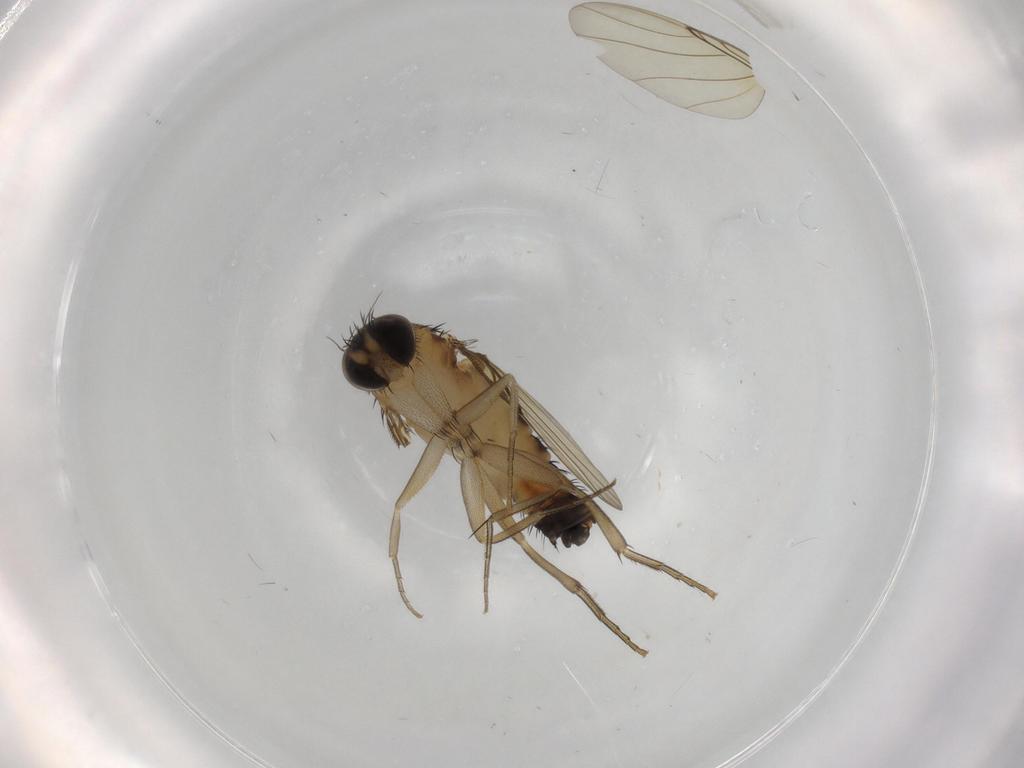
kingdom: Animalia
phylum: Arthropoda
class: Insecta
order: Diptera
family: Phoridae
